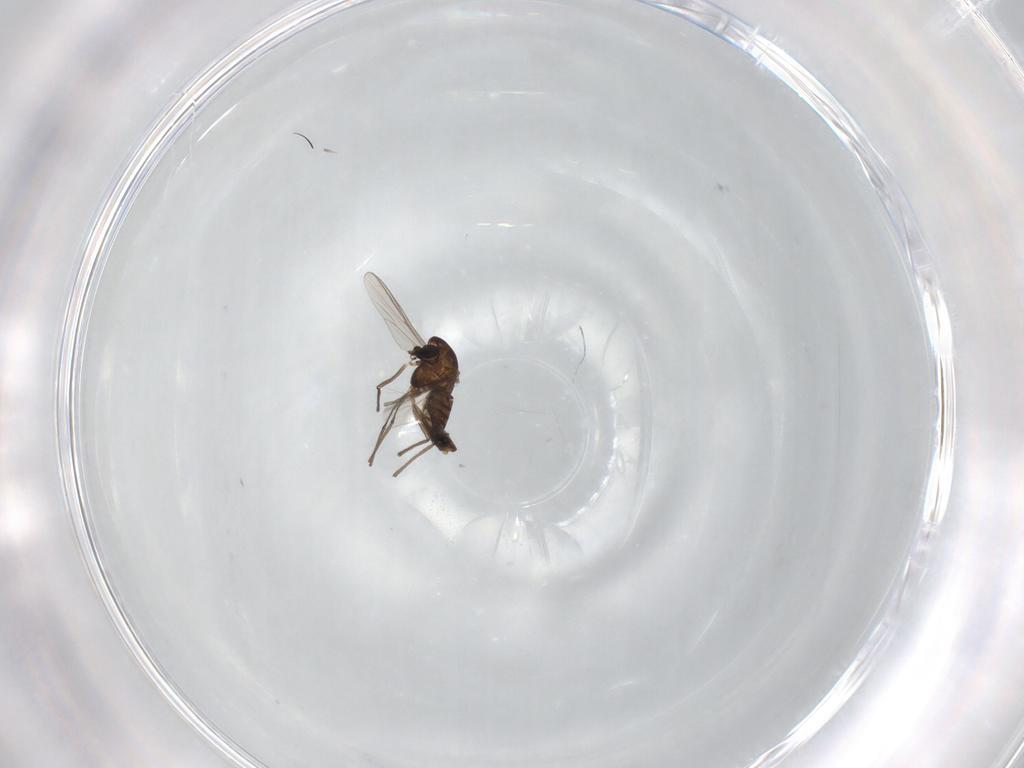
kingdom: Animalia
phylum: Arthropoda
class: Insecta
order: Diptera
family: Chironomidae
